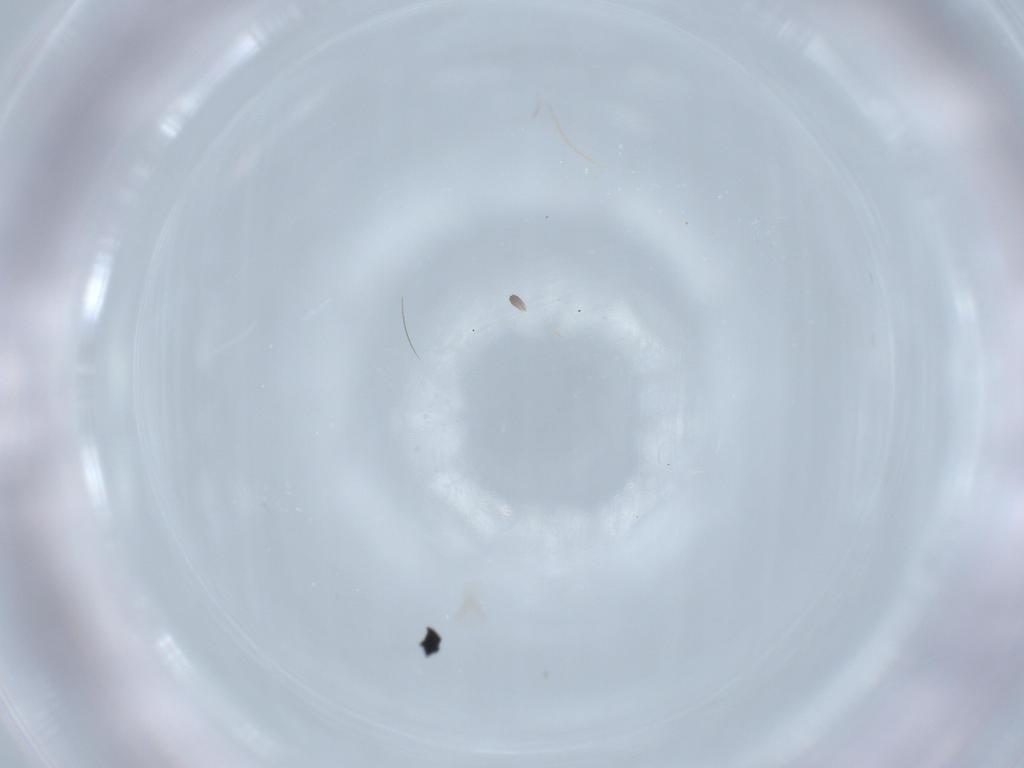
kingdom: Animalia
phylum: Arthropoda
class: Insecta
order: Diptera
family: Cecidomyiidae
